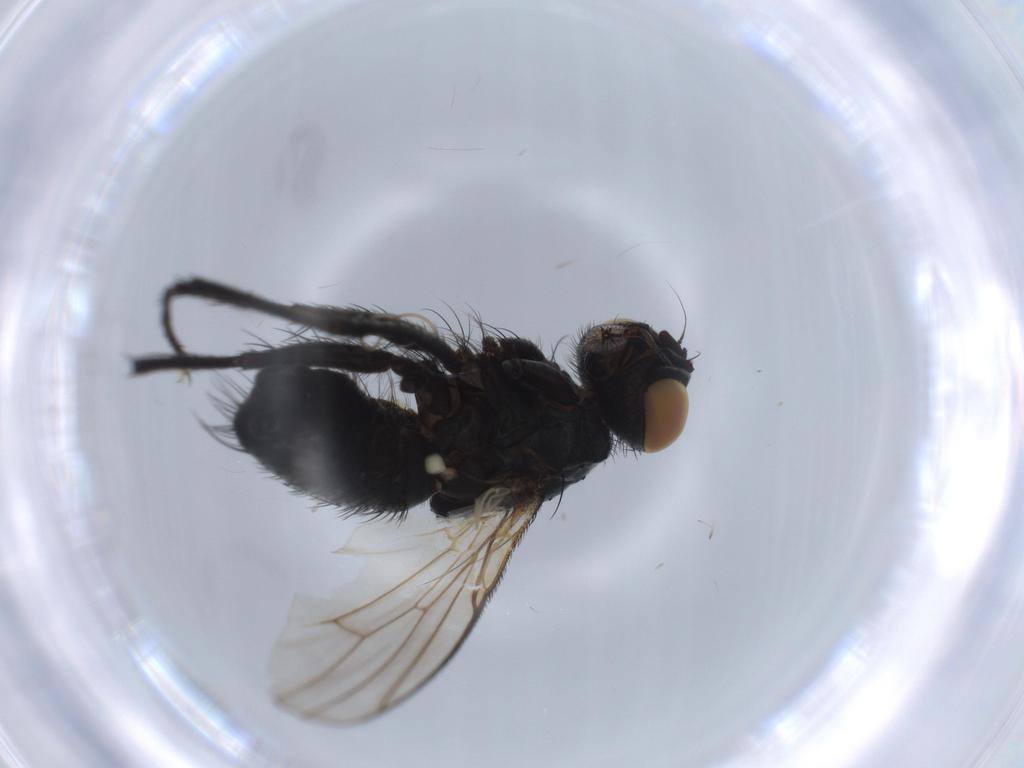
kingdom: Animalia
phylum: Arthropoda
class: Insecta
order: Diptera
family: Muscidae
